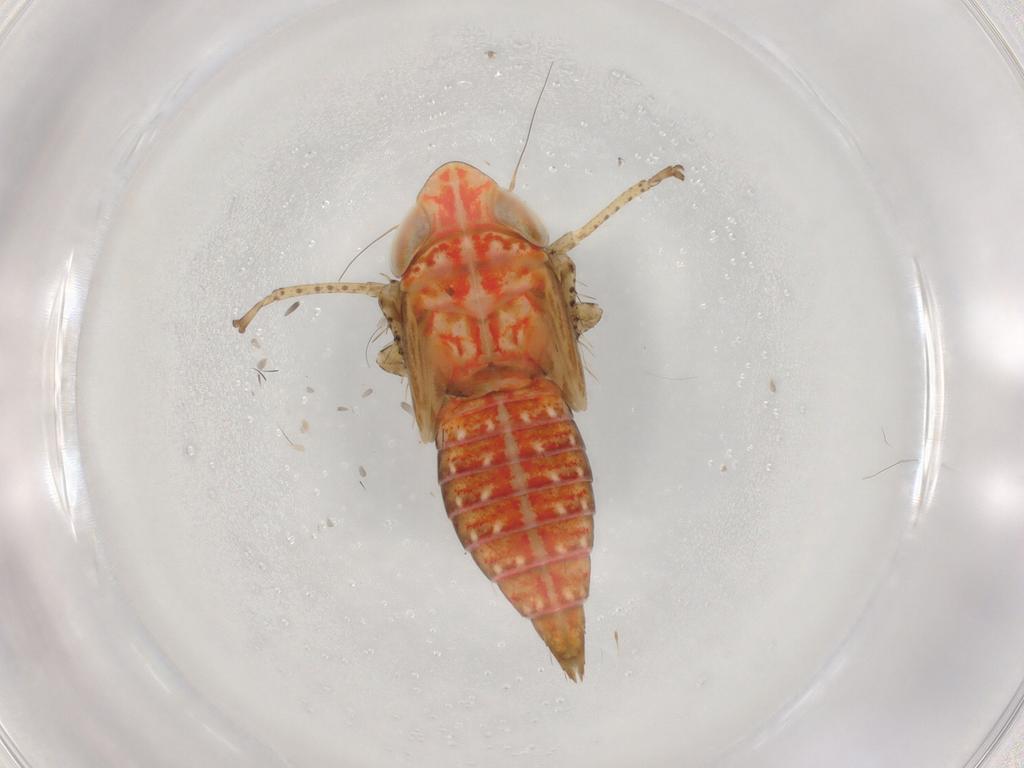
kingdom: Animalia
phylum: Arthropoda
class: Insecta
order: Hemiptera
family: Cicadellidae
